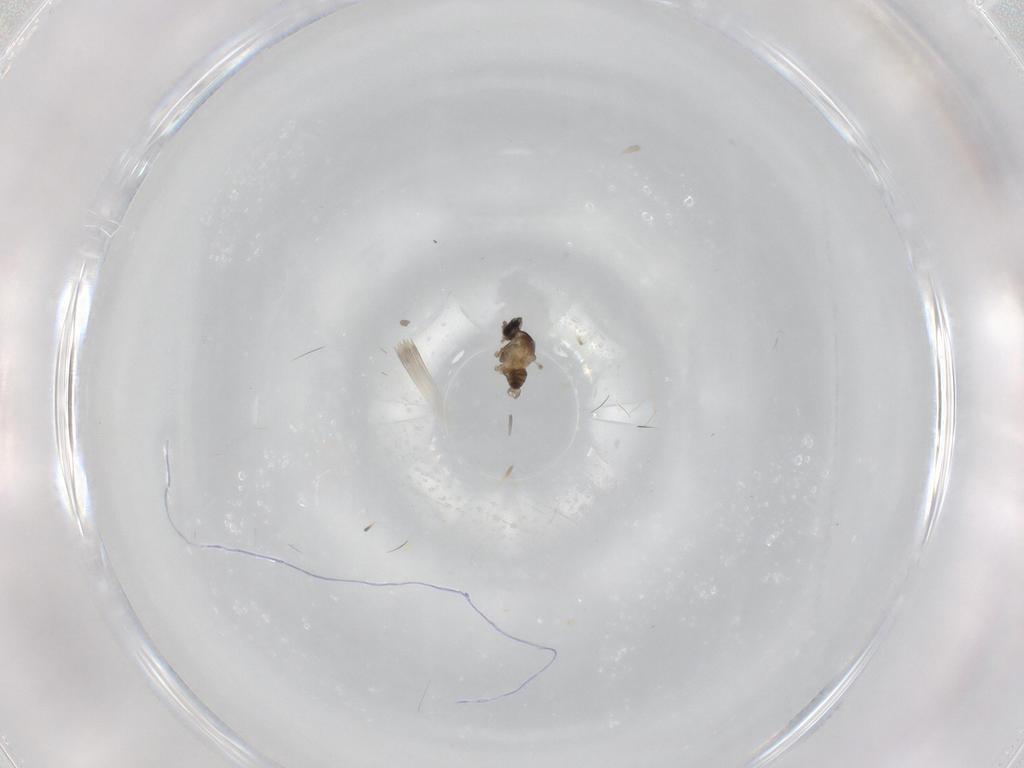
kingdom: Animalia
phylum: Arthropoda
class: Insecta
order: Diptera
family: Cecidomyiidae
